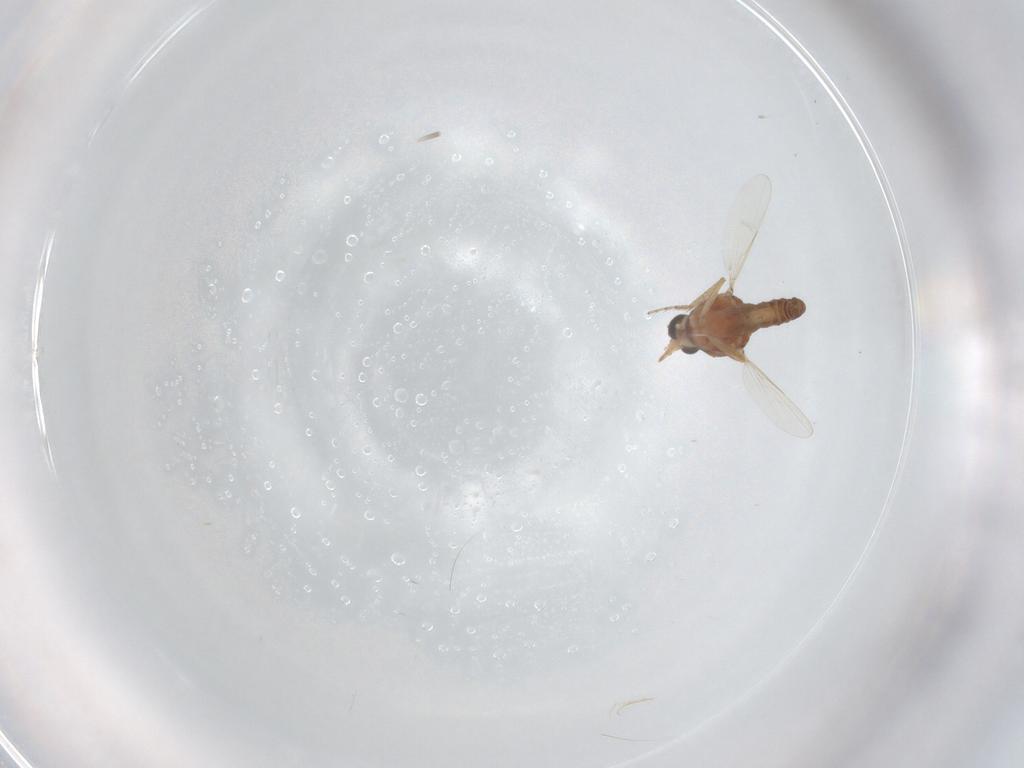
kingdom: Animalia
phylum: Arthropoda
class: Insecta
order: Diptera
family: Ceratopogonidae
